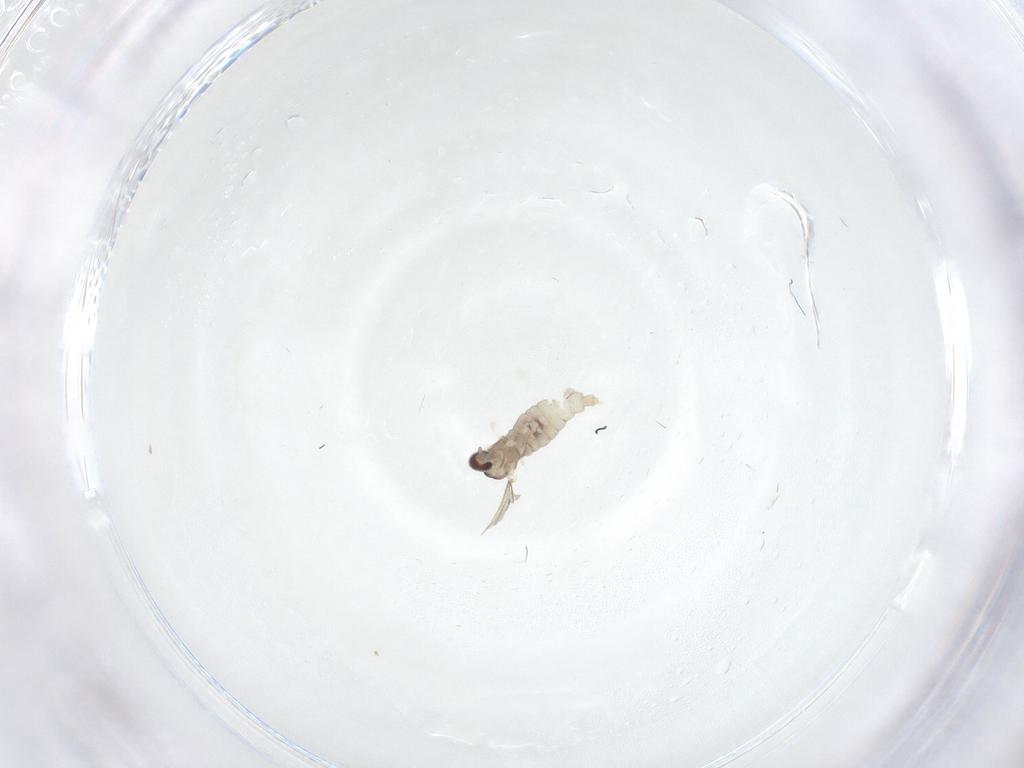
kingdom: Animalia
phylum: Arthropoda
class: Insecta
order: Diptera
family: Cecidomyiidae
